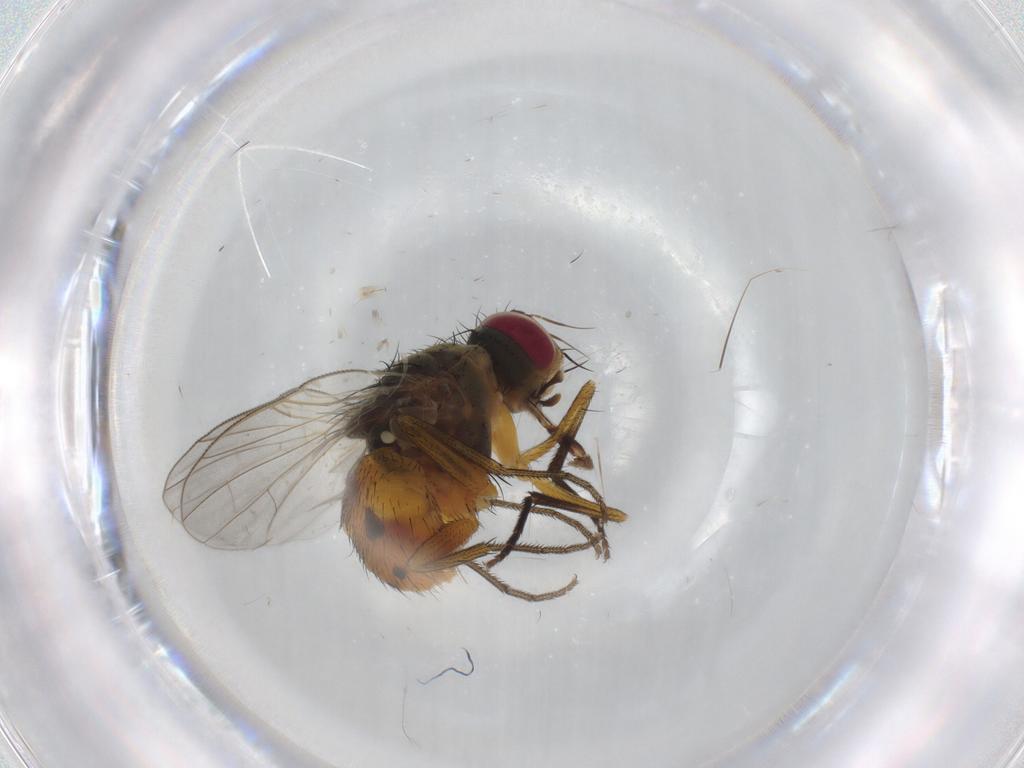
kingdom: Animalia
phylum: Arthropoda
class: Insecta
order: Diptera
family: Muscidae
